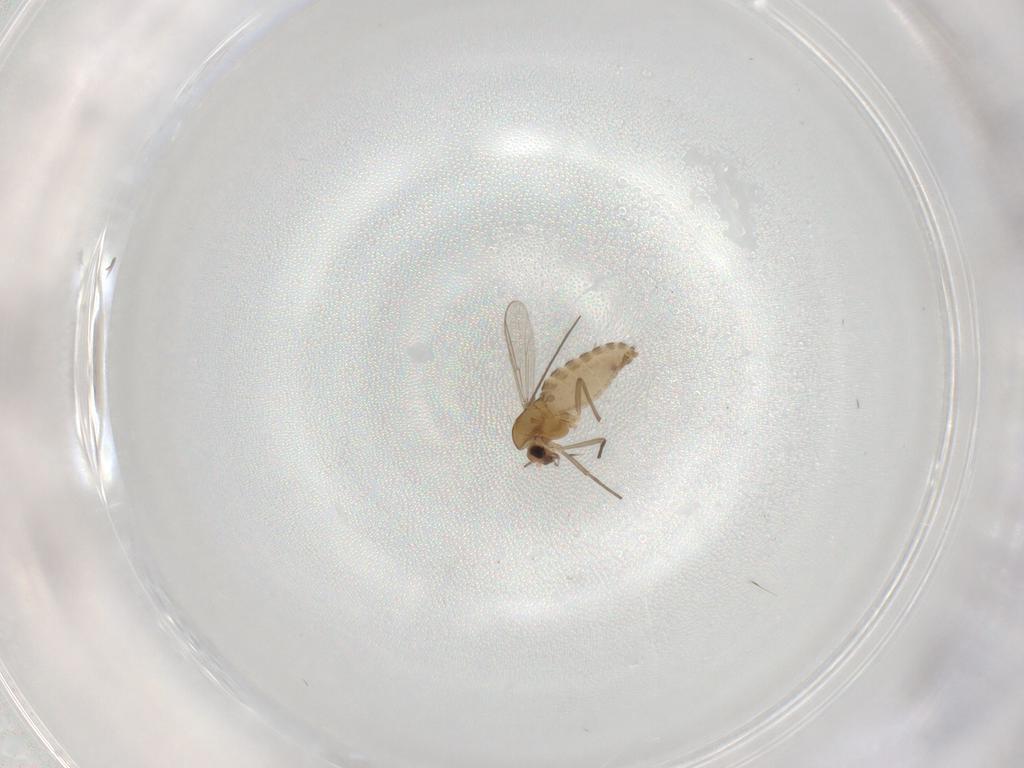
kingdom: Animalia
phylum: Arthropoda
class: Insecta
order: Diptera
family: Chironomidae
